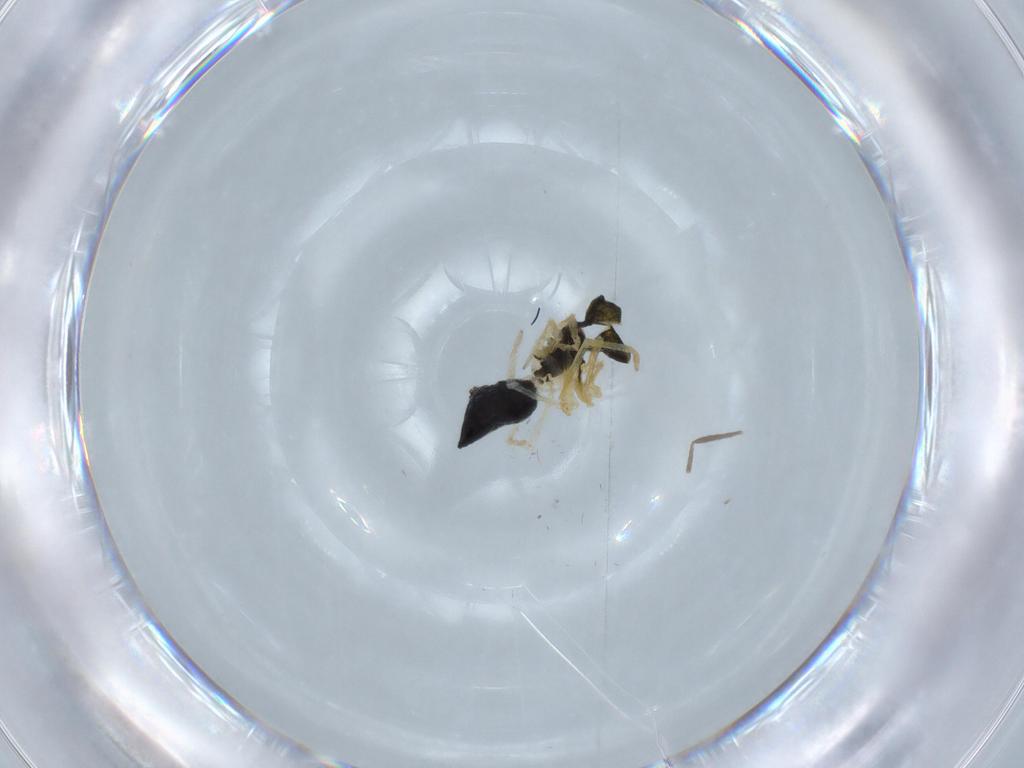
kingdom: Animalia
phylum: Arthropoda
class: Arachnida
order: Araneae
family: Theridiidae
